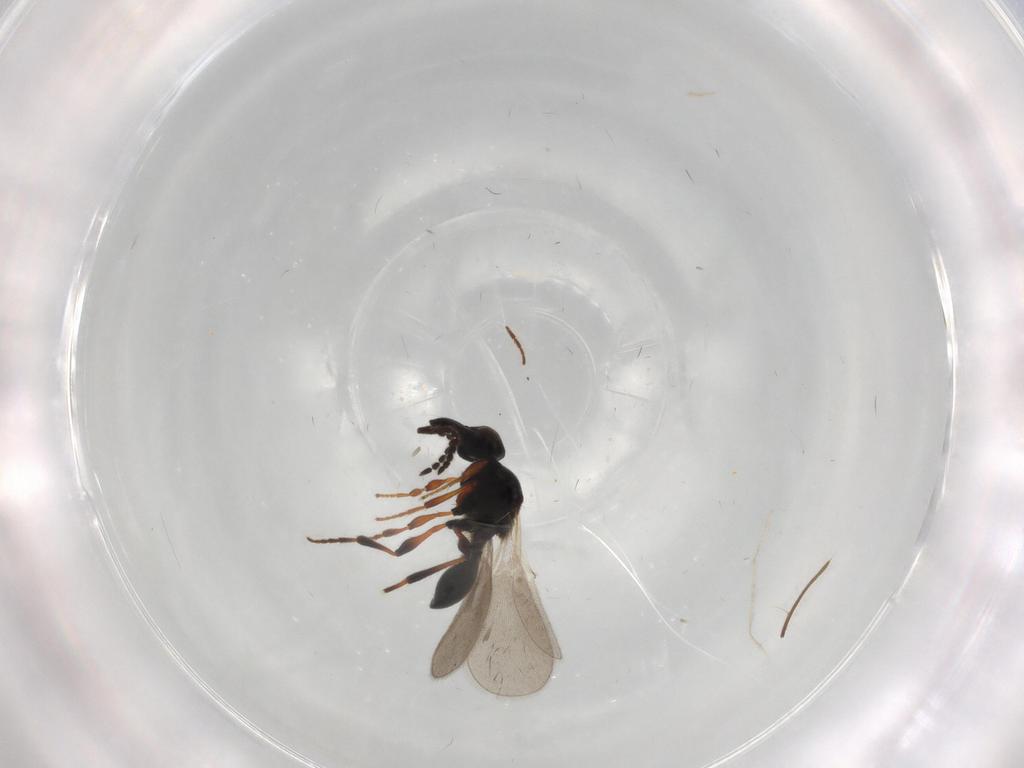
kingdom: Animalia
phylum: Arthropoda
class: Insecta
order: Hymenoptera
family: Platygastridae
